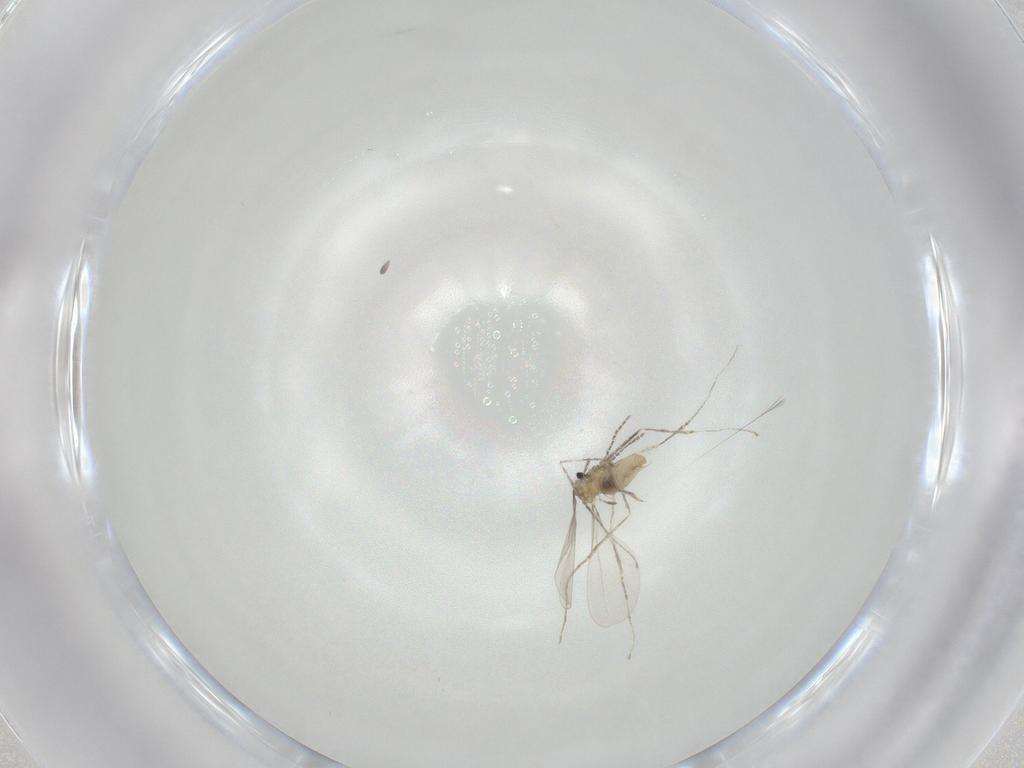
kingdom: Animalia
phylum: Arthropoda
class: Insecta
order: Diptera
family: Cecidomyiidae
